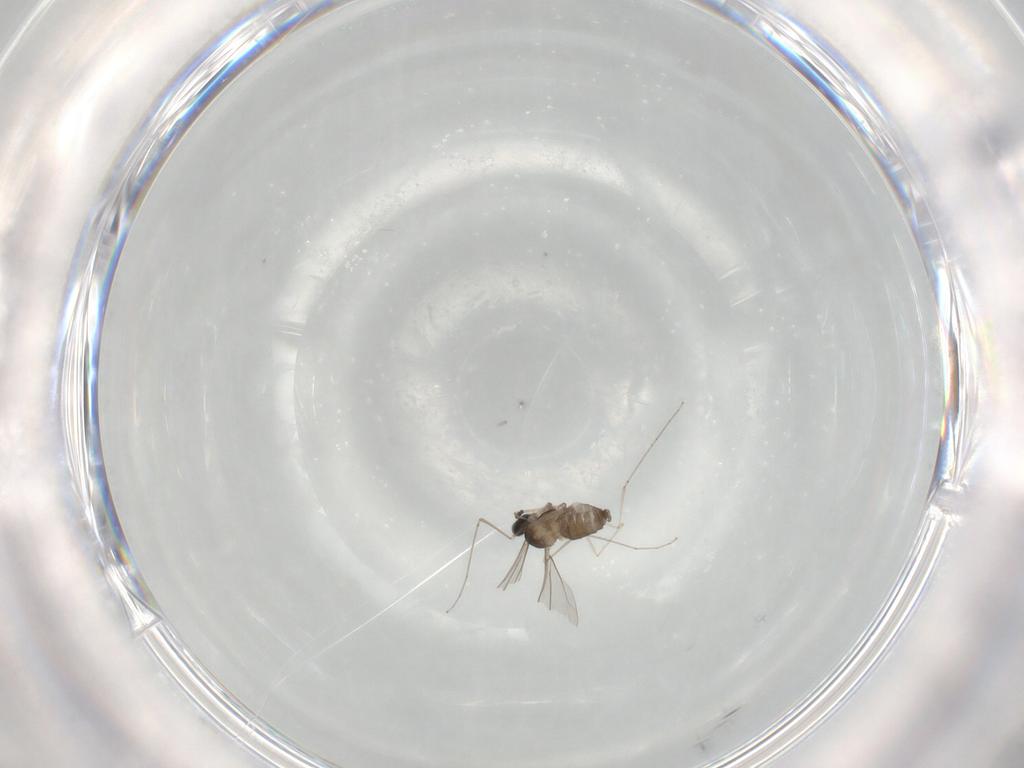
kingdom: Animalia
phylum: Arthropoda
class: Insecta
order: Diptera
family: Cecidomyiidae
